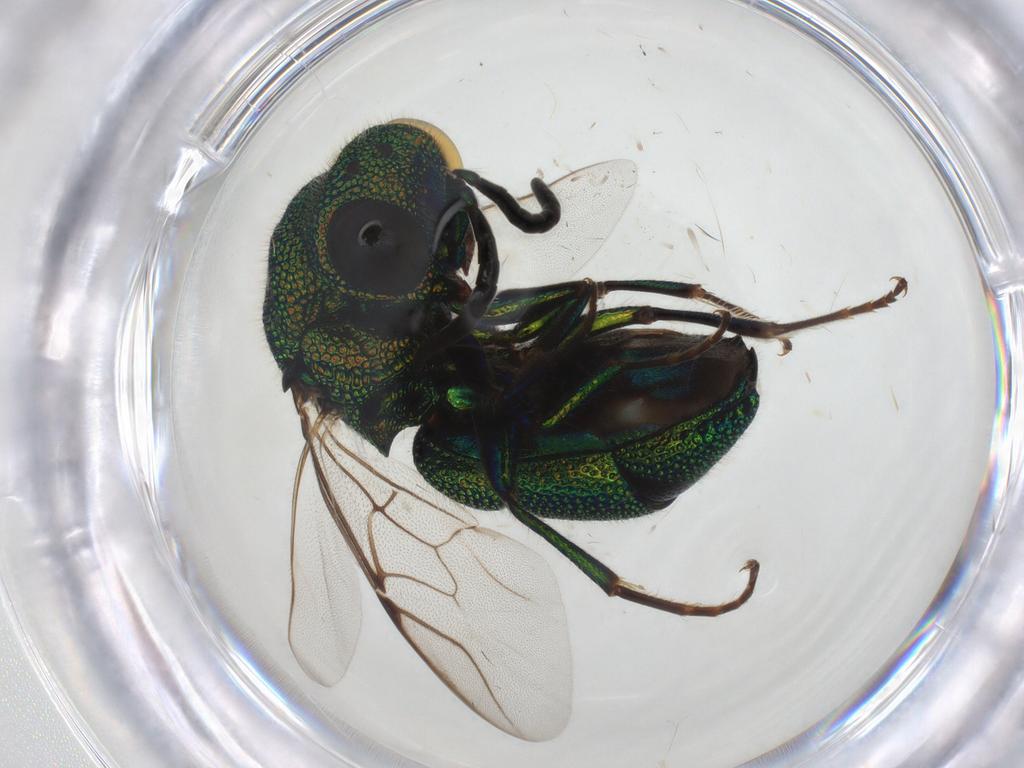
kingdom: Animalia
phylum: Arthropoda
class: Insecta
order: Hymenoptera
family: Chrysididae
